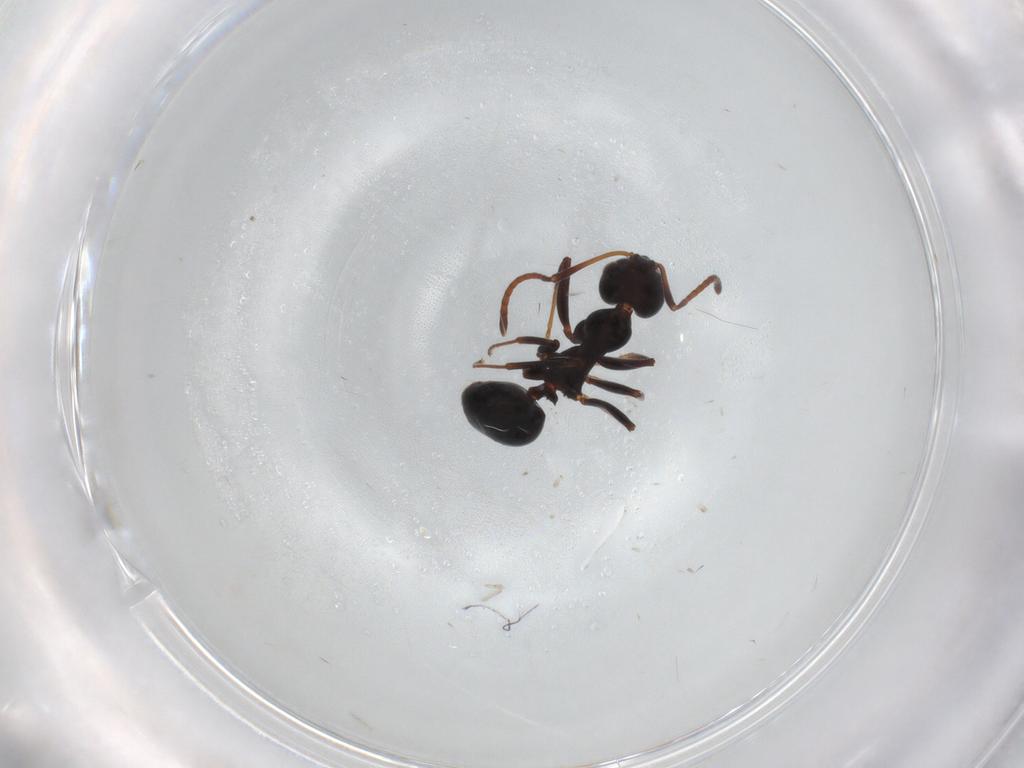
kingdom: Animalia
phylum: Arthropoda
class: Insecta
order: Hymenoptera
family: Formicidae
